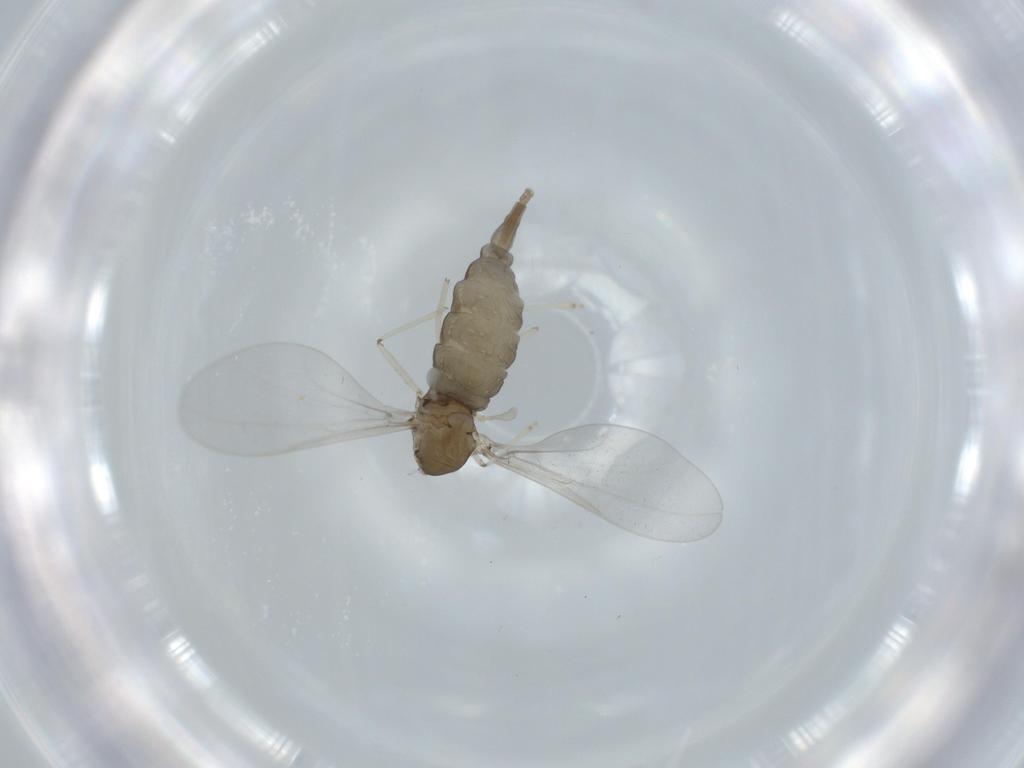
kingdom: Animalia
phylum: Arthropoda
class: Insecta
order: Diptera
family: Cecidomyiidae
